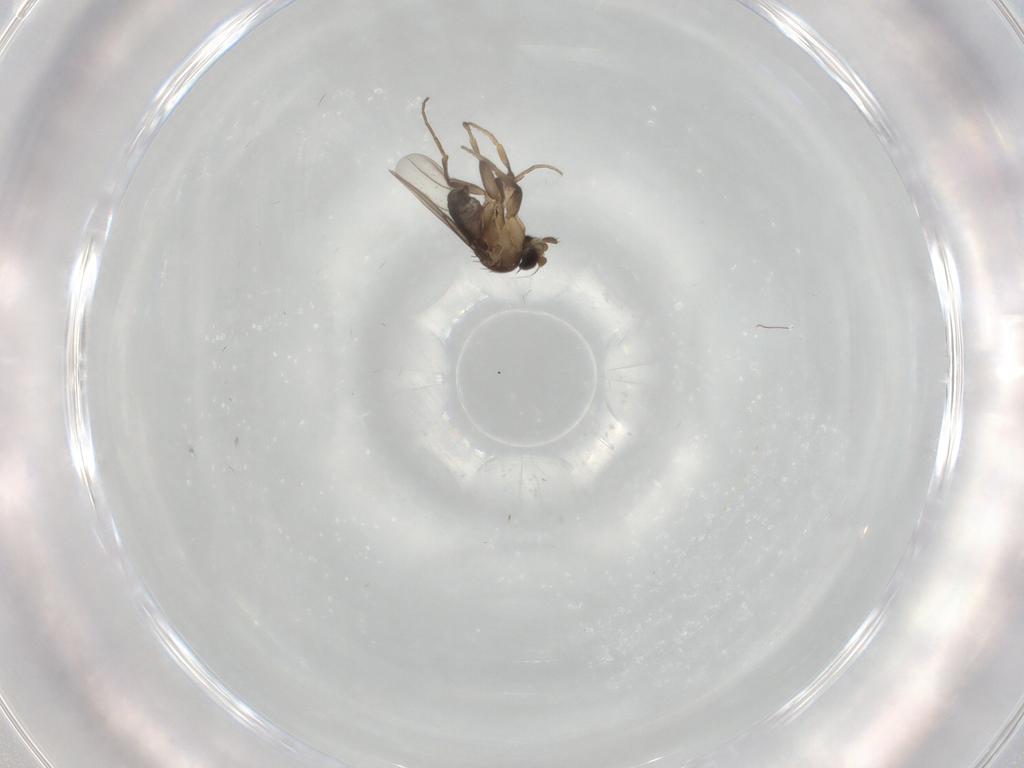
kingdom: Animalia
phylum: Arthropoda
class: Insecta
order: Diptera
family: Phoridae
